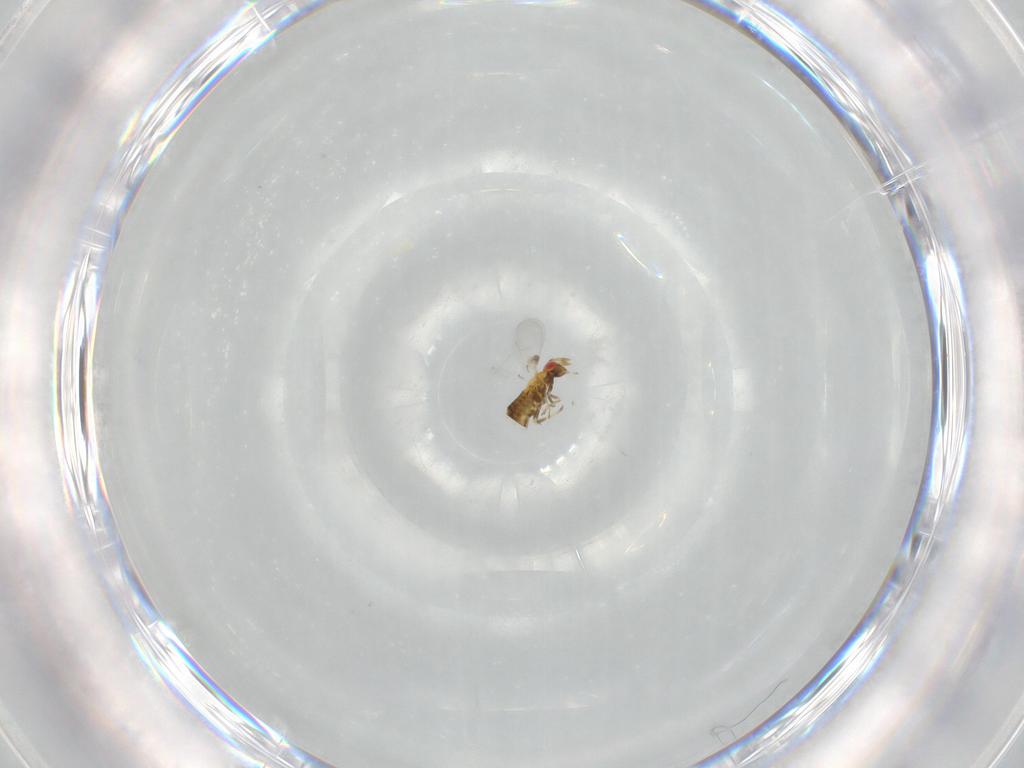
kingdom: Animalia
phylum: Arthropoda
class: Insecta
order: Hymenoptera
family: Trichogrammatidae
